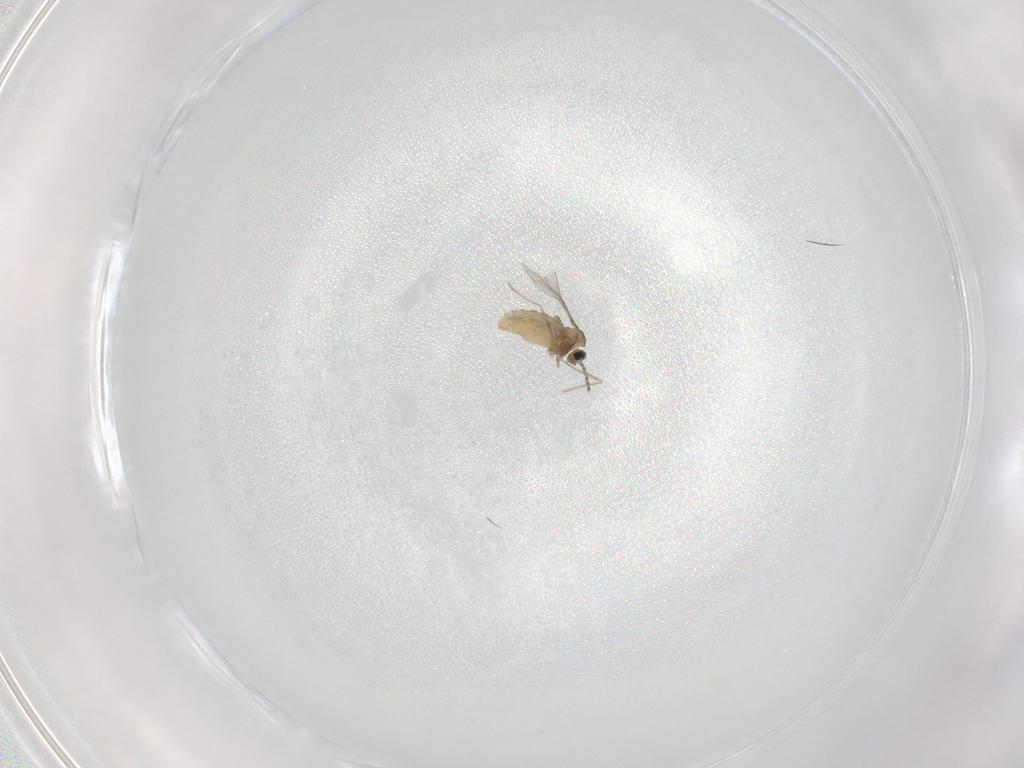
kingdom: Animalia
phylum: Arthropoda
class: Insecta
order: Diptera
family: Cecidomyiidae
